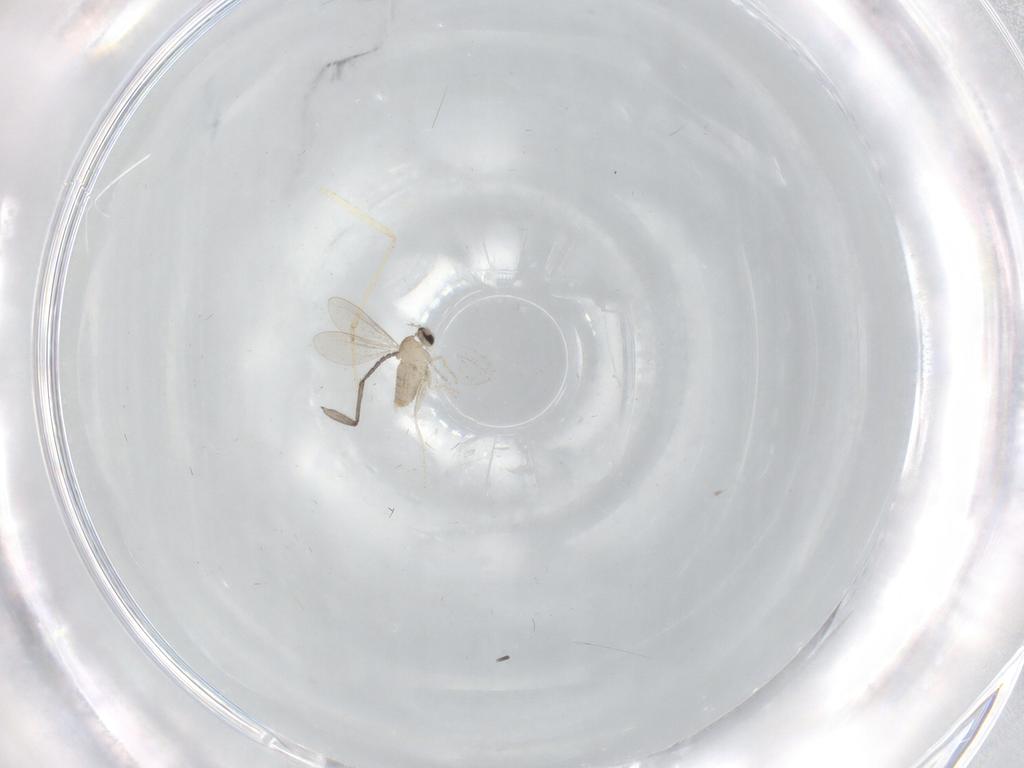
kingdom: Animalia
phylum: Arthropoda
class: Insecta
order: Diptera
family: Sciaridae
